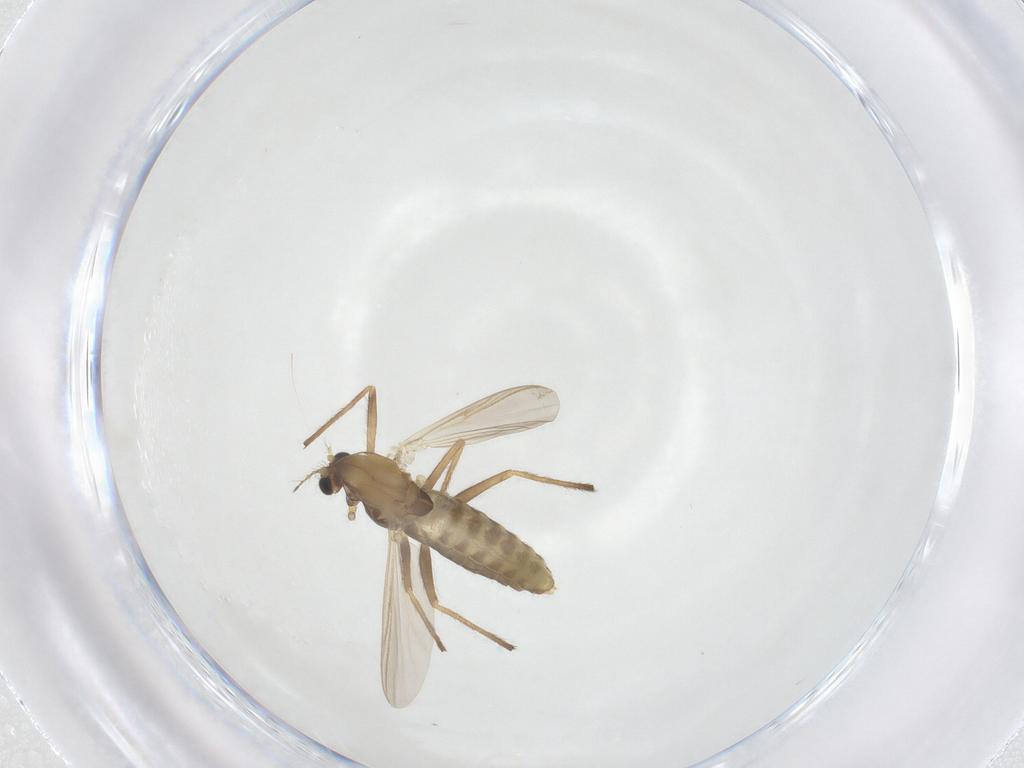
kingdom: Animalia
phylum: Arthropoda
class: Insecta
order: Diptera
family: Chironomidae
